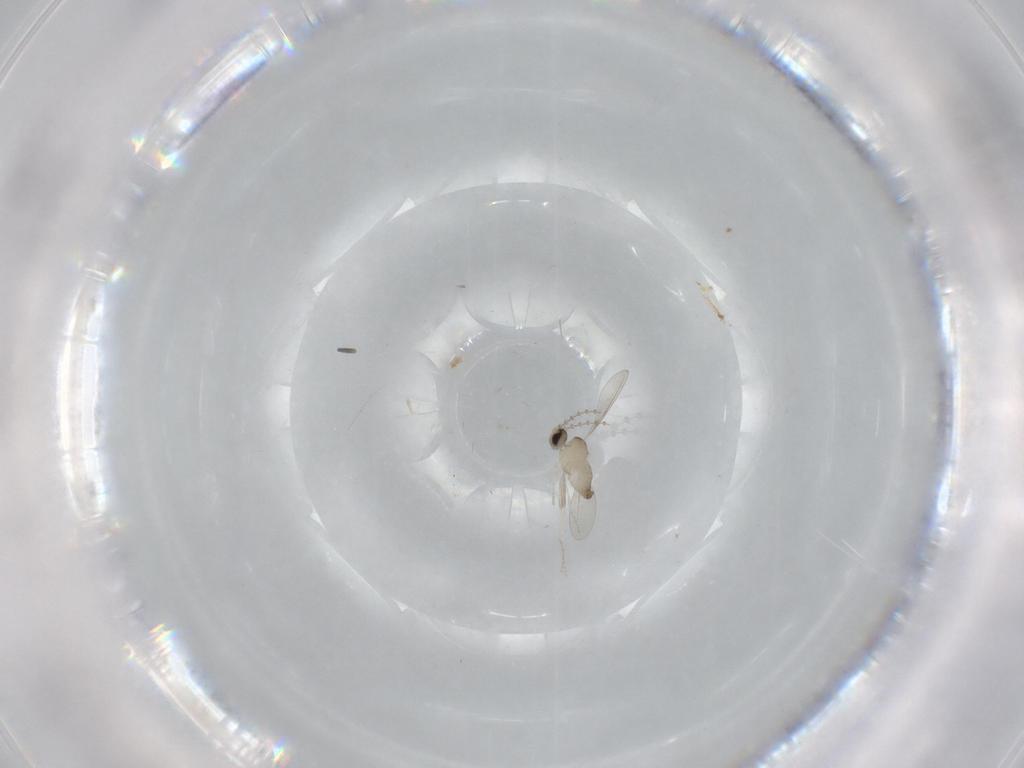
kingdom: Animalia
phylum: Arthropoda
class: Insecta
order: Diptera
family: Cecidomyiidae
